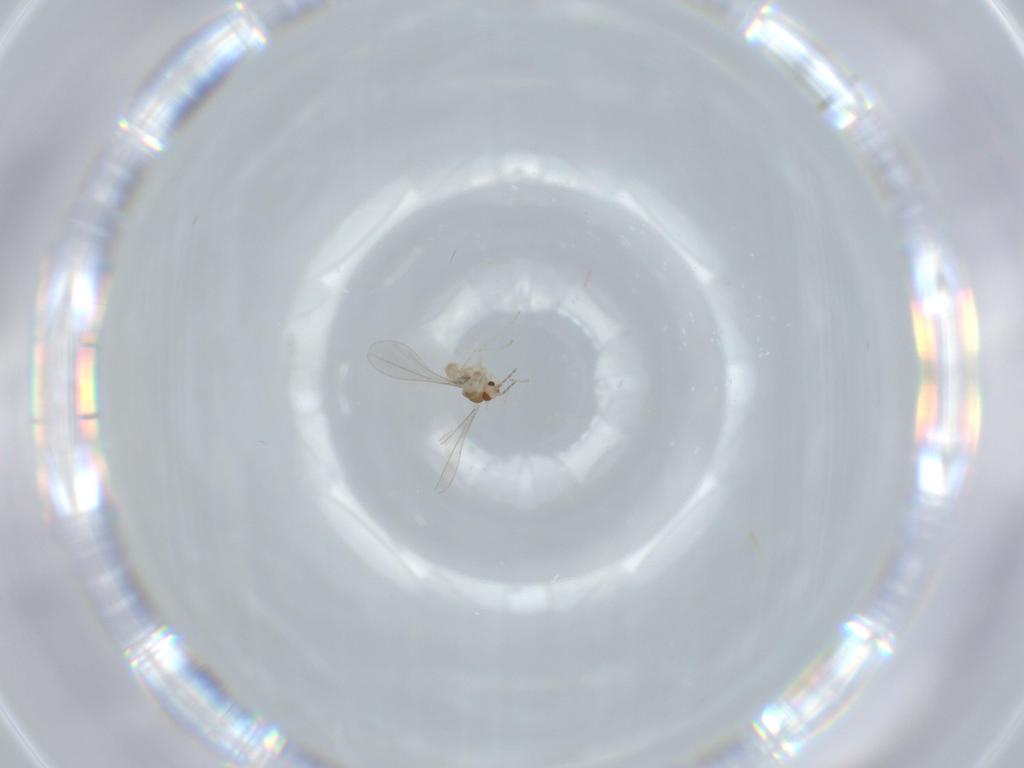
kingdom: Animalia
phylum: Arthropoda
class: Insecta
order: Diptera
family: Cecidomyiidae
